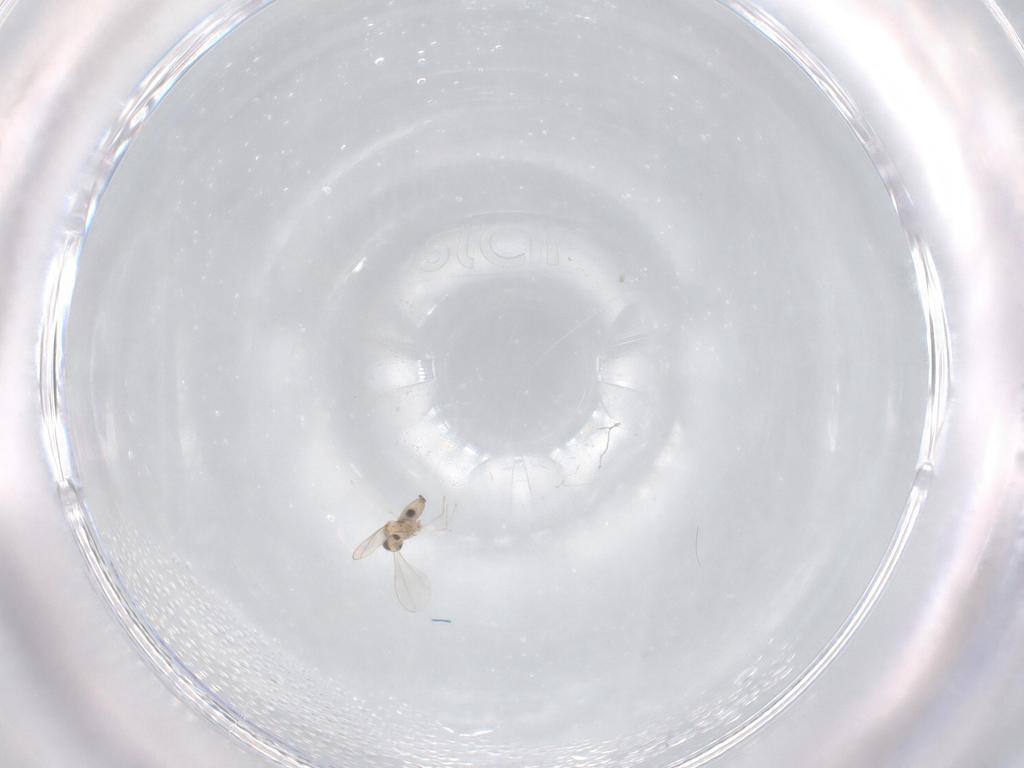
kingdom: Animalia
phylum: Arthropoda
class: Insecta
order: Diptera
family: Cecidomyiidae
